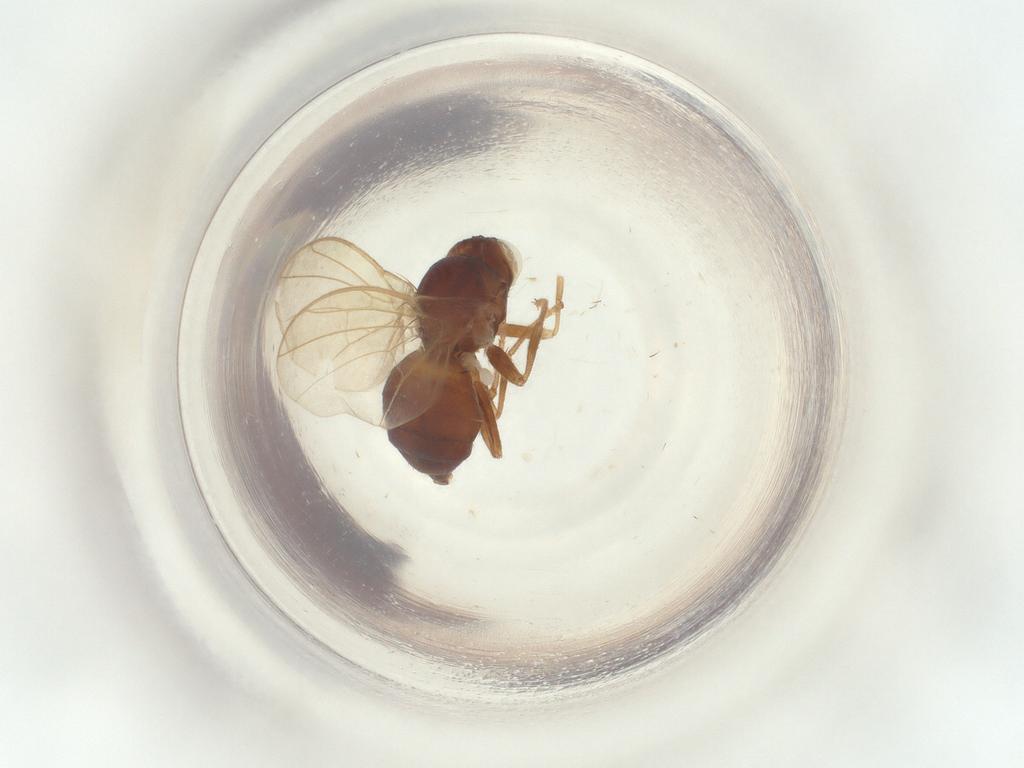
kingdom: Animalia
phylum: Arthropoda
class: Insecta
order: Diptera
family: Agromyzidae
